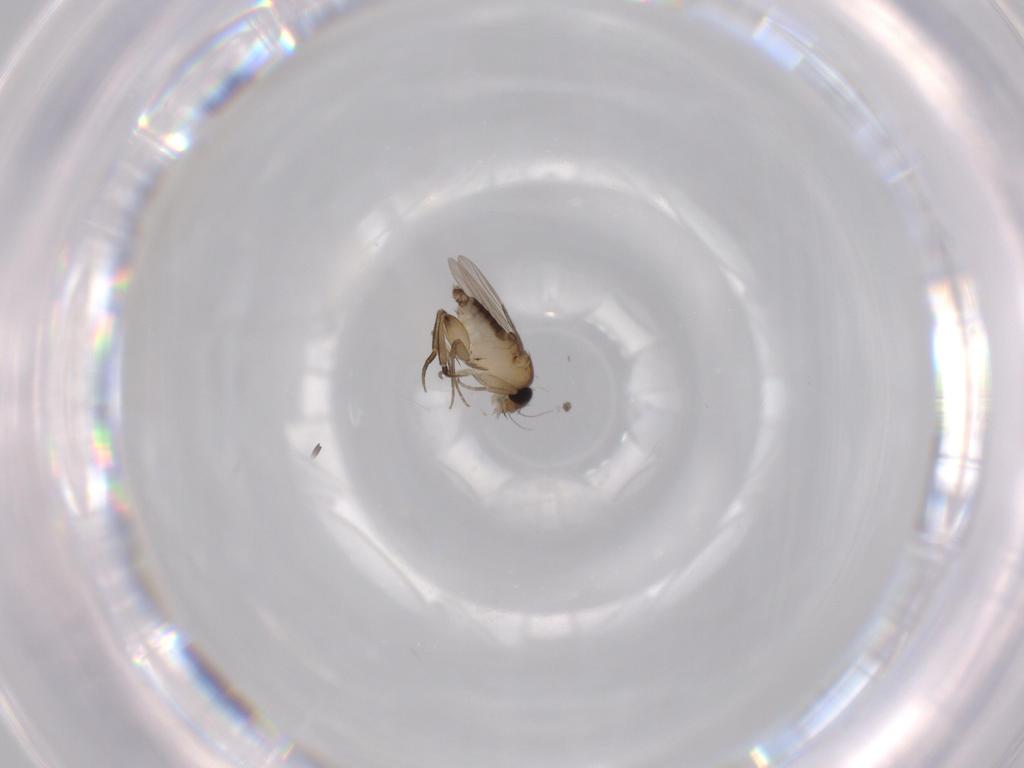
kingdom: Animalia
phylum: Arthropoda
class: Insecta
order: Diptera
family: Phoridae
